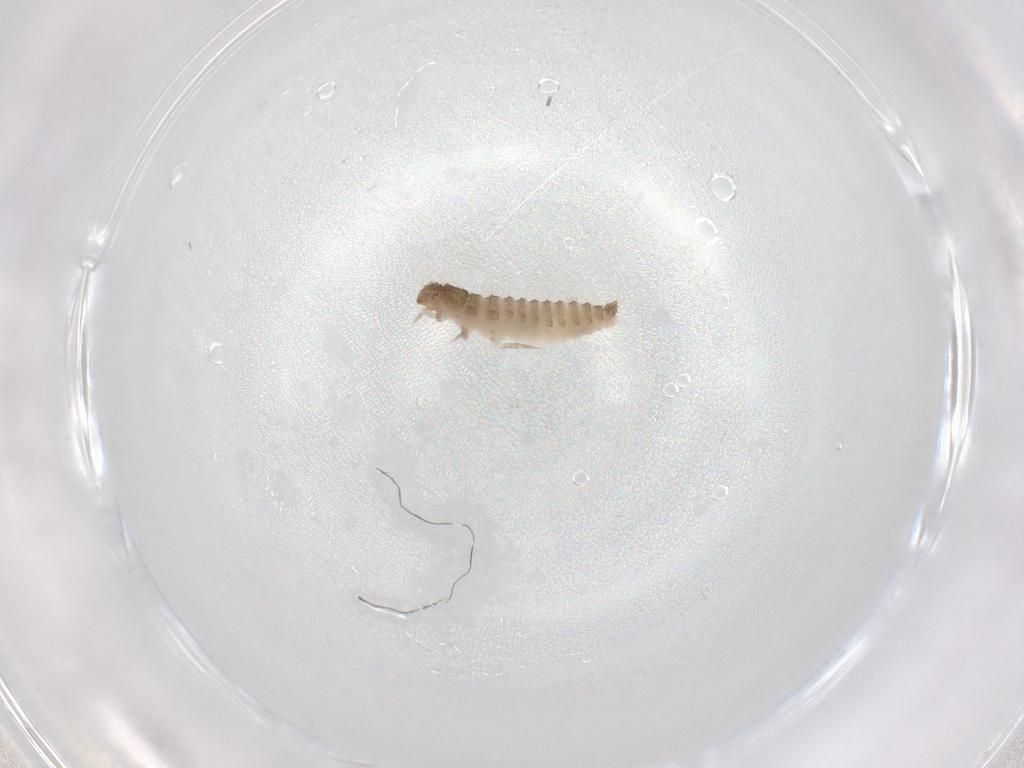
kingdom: Animalia
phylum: Arthropoda
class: Insecta
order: Coleoptera
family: Erotylidae
